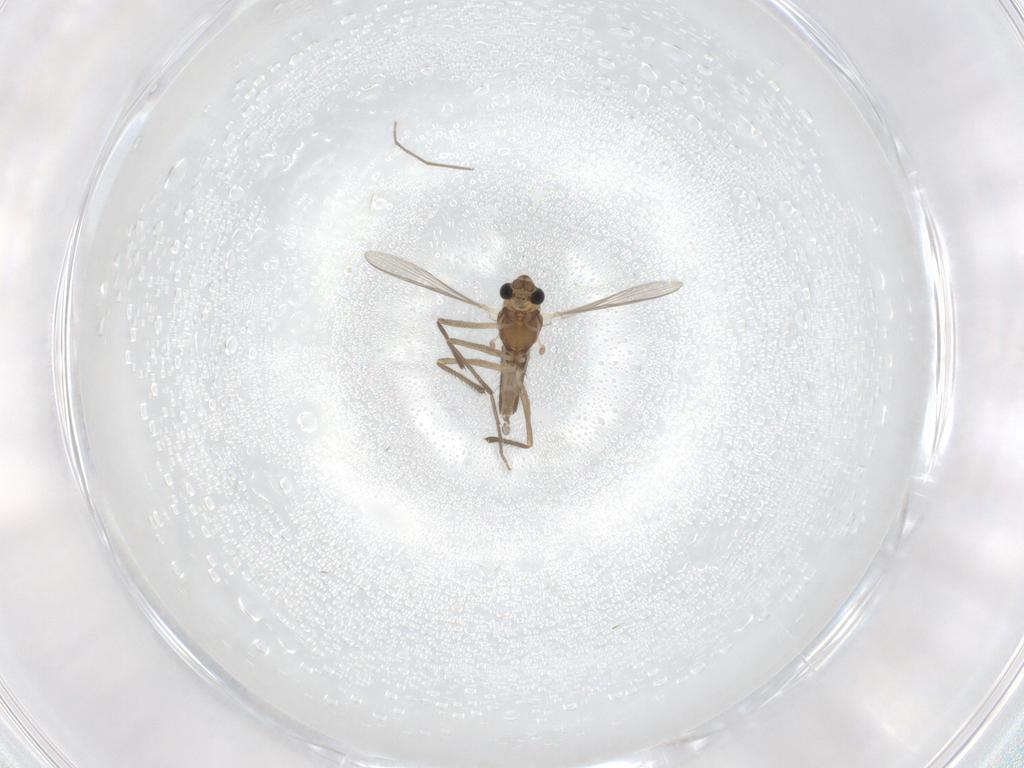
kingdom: Animalia
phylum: Arthropoda
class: Insecta
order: Diptera
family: Chironomidae
